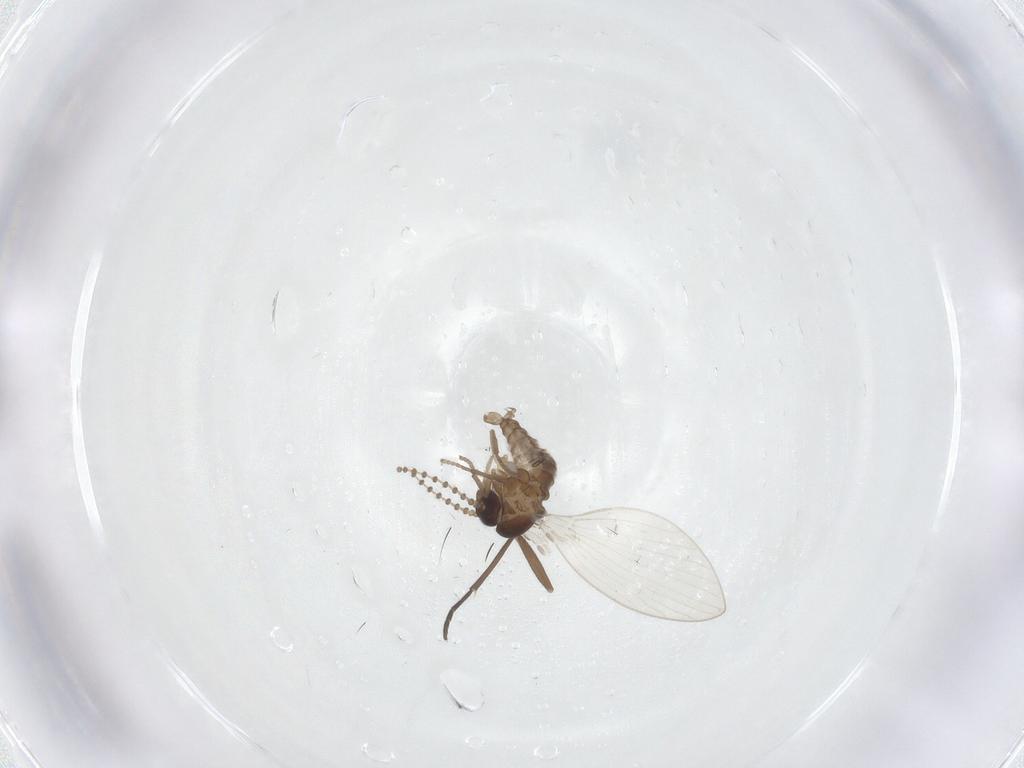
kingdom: Animalia
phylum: Arthropoda
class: Insecta
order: Diptera
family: Sciaridae
